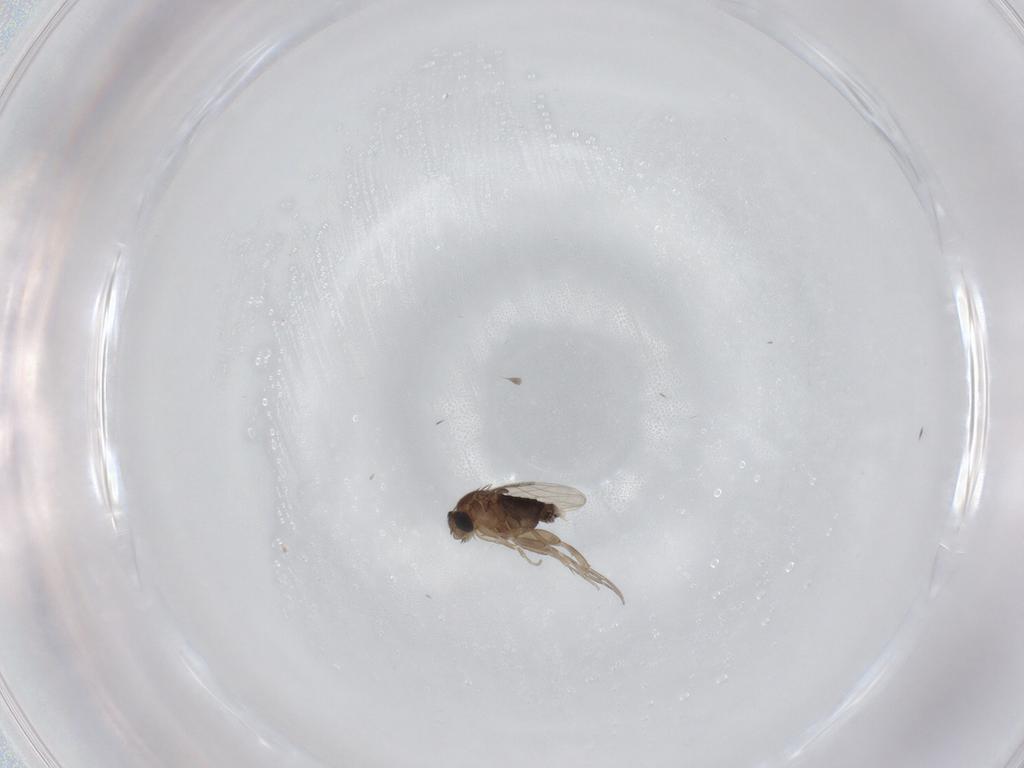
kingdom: Animalia
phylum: Arthropoda
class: Insecta
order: Diptera
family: Phoridae
